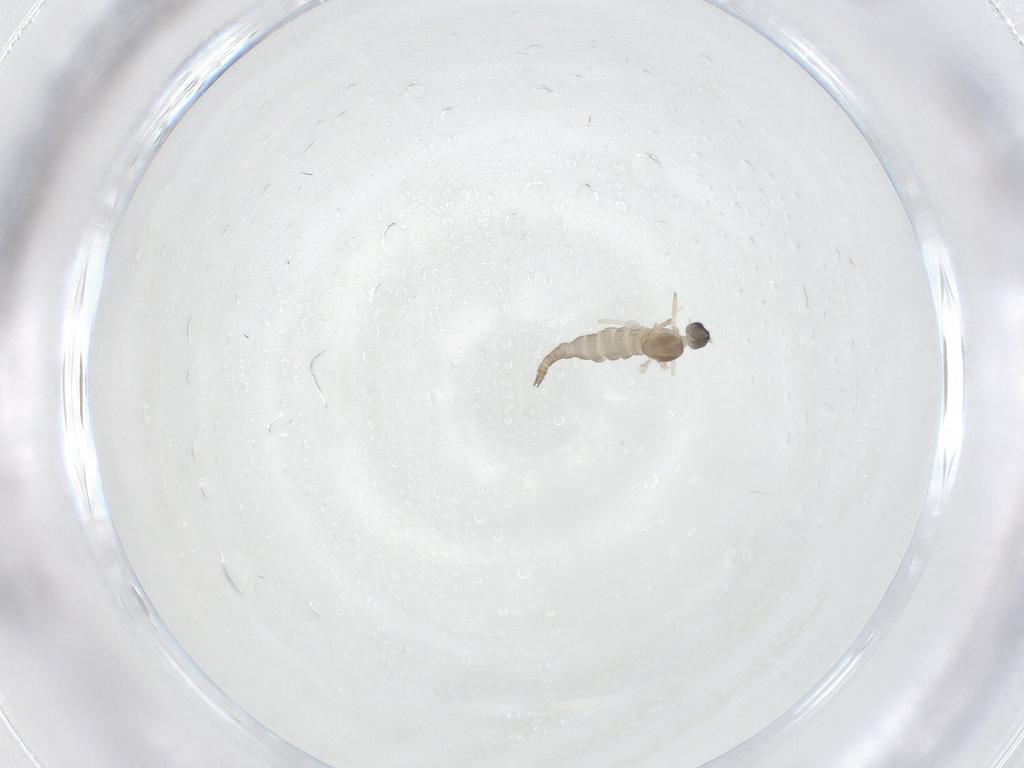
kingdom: Animalia
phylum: Arthropoda
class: Insecta
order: Diptera
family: Cecidomyiidae
